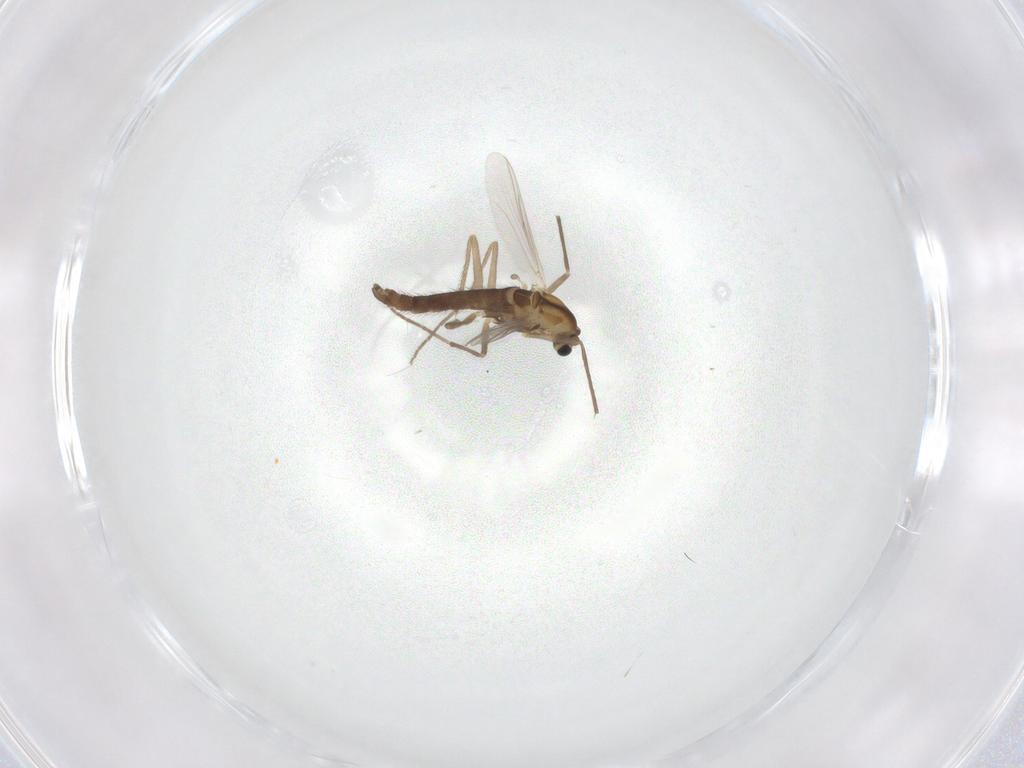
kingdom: Animalia
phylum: Arthropoda
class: Insecta
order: Diptera
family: Chironomidae
